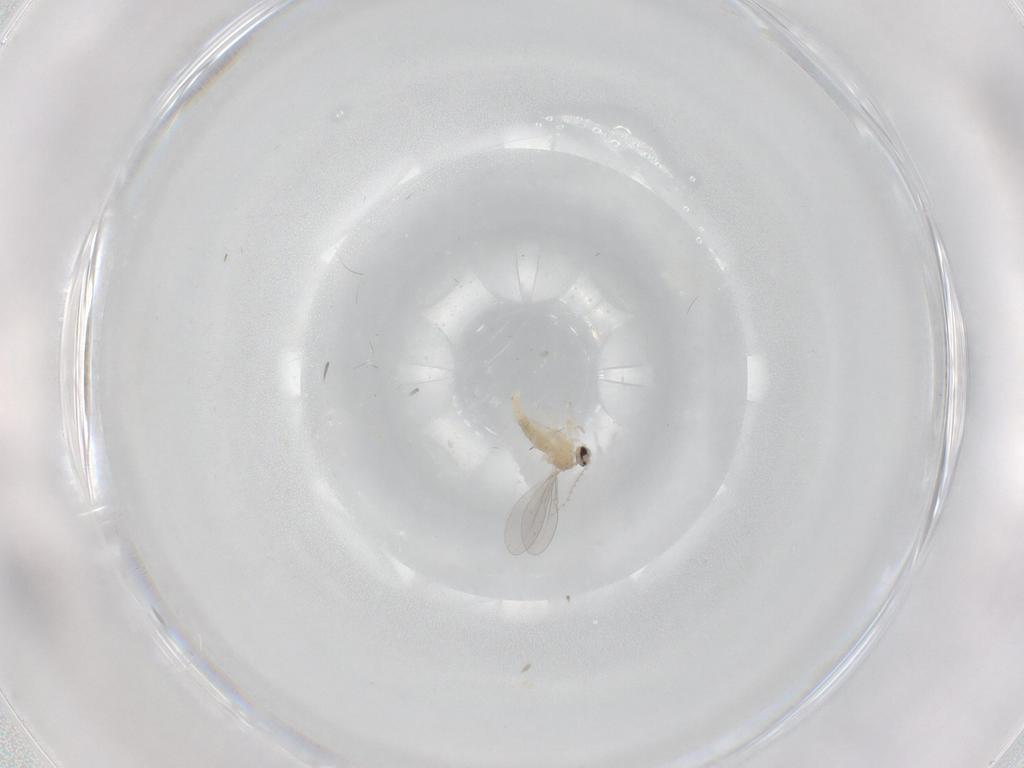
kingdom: Animalia
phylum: Arthropoda
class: Insecta
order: Diptera
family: Cecidomyiidae
